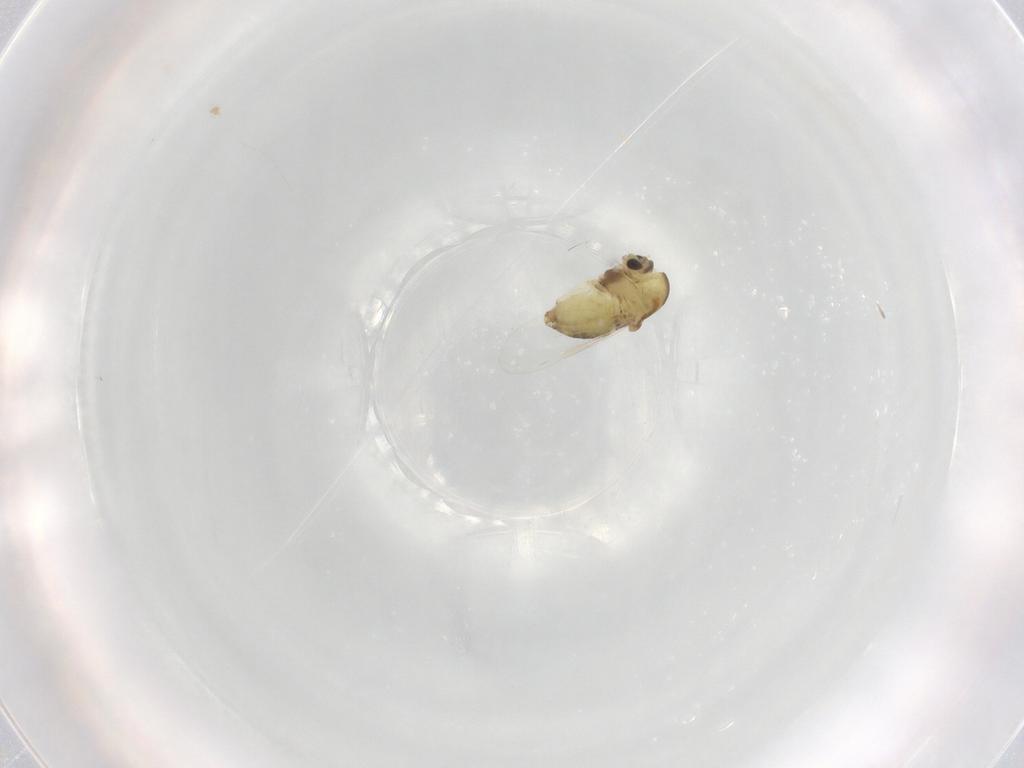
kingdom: Animalia
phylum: Arthropoda
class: Insecta
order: Diptera
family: Chironomidae
